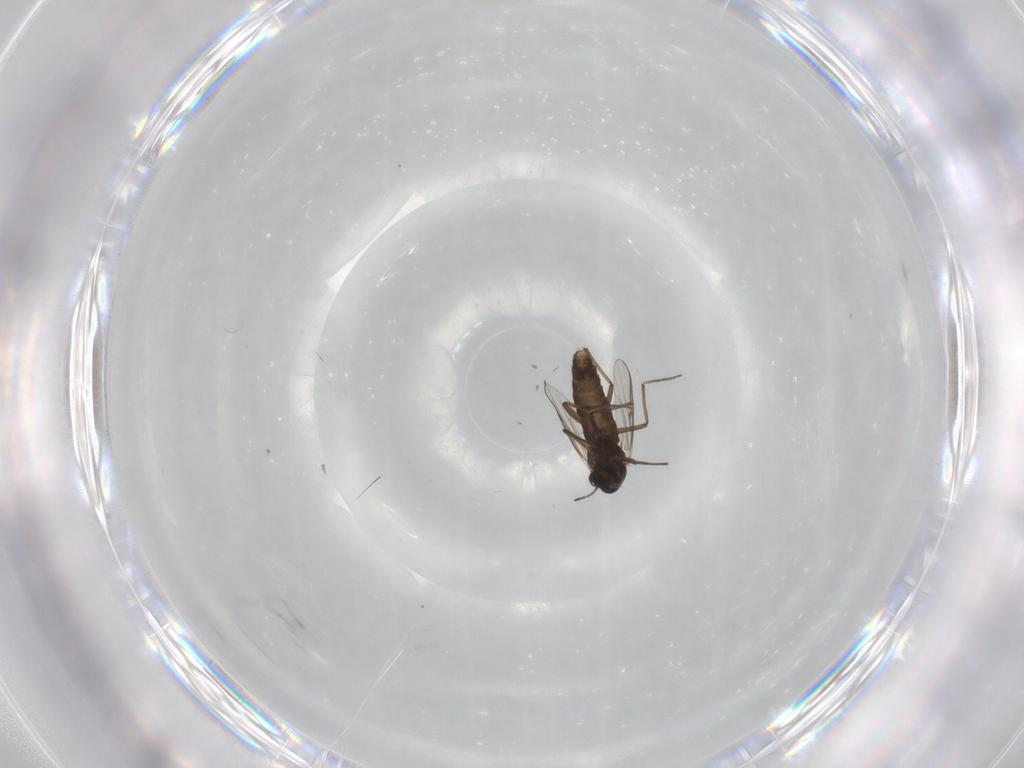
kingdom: Animalia
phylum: Arthropoda
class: Insecta
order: Diptera
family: Chironomidae
